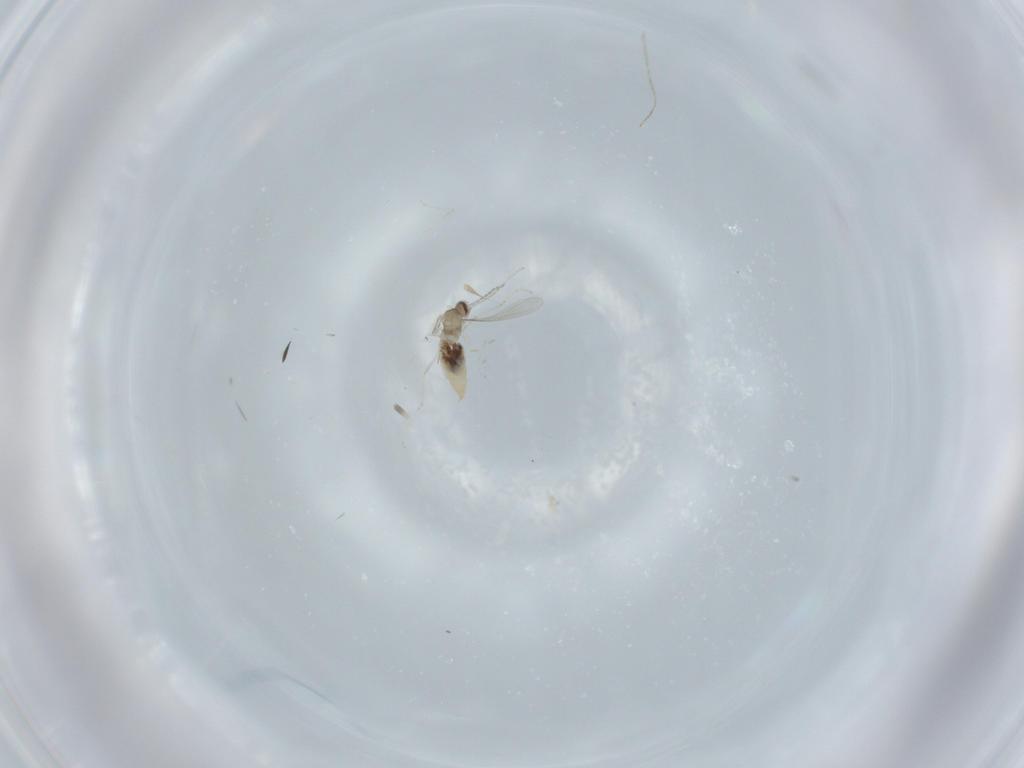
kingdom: Animalia
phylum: Arthropoda
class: Insecta
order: Diptera
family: Cecidomyiidae
